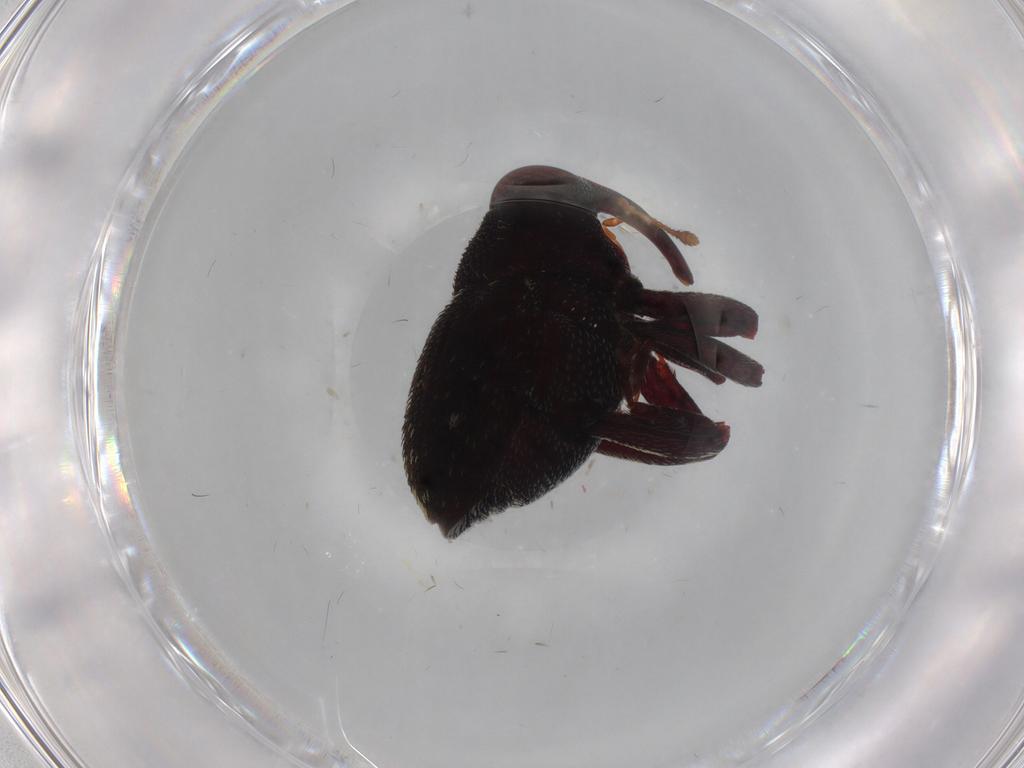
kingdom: Animalia
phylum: Arthropoda
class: Insecta
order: Coleoptera
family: Curculionidae
